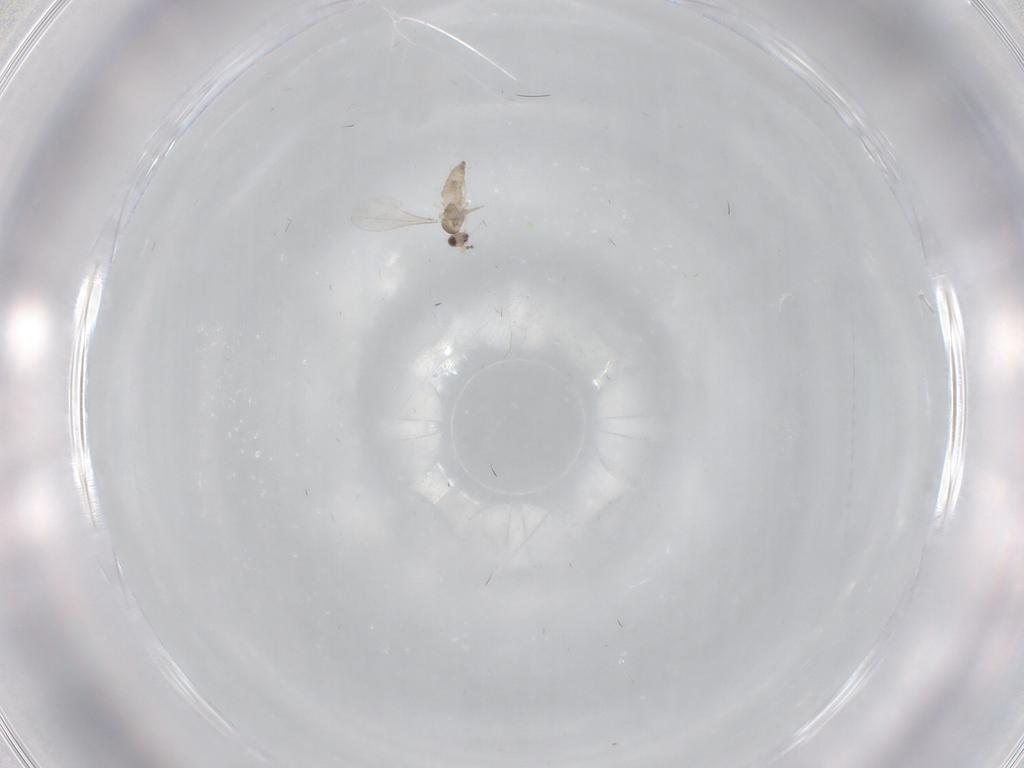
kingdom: Animalia
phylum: Arthropoda
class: Insecta
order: Diptera
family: Cecidomyiidae
